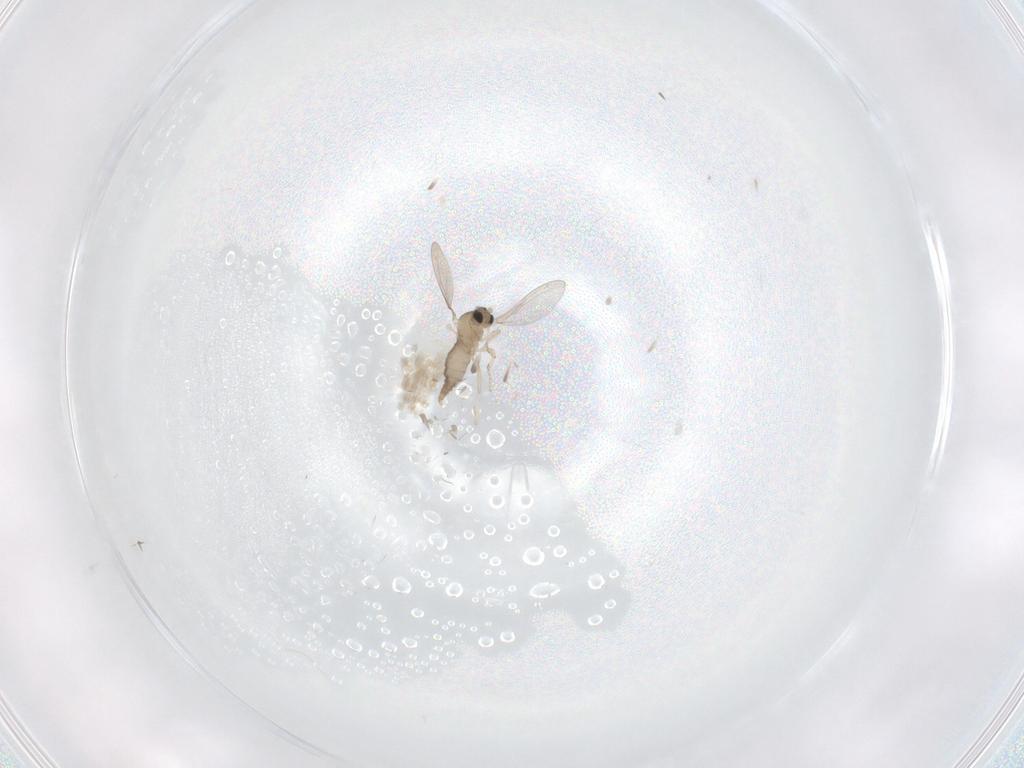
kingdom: Animalia
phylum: Arthropoda
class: Insecta
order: Diptera
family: Cecidomyiidae
